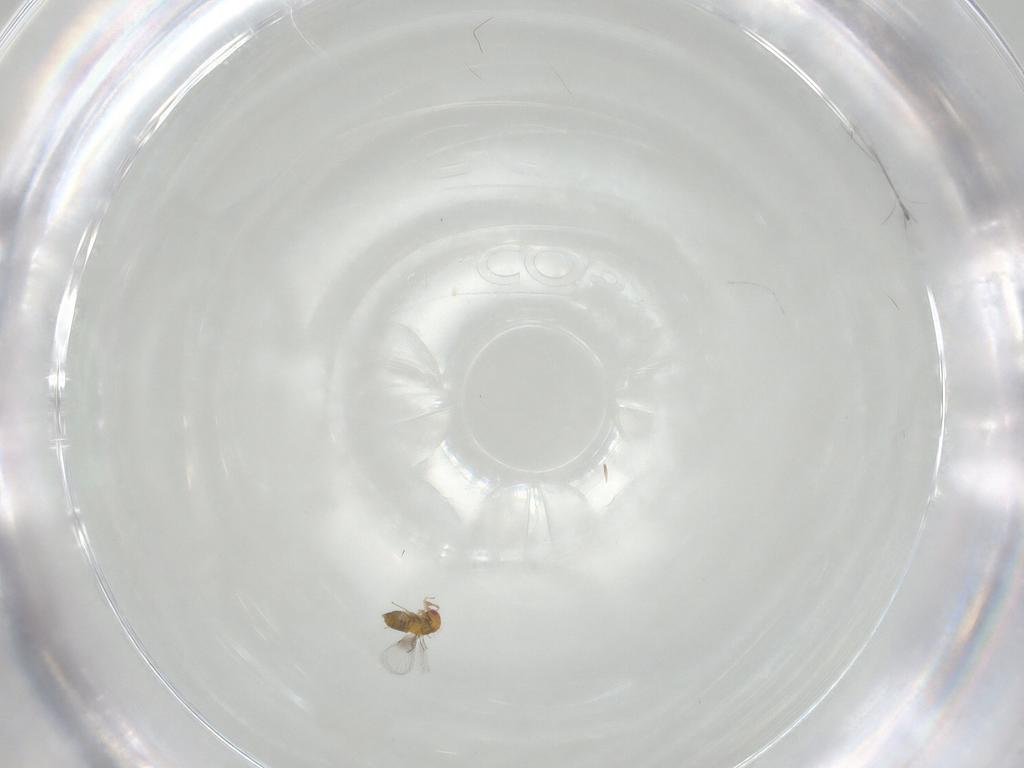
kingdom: Animalia
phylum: Arthropoda
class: Insecta
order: Hymenoptera
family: Trichogrammatidae
